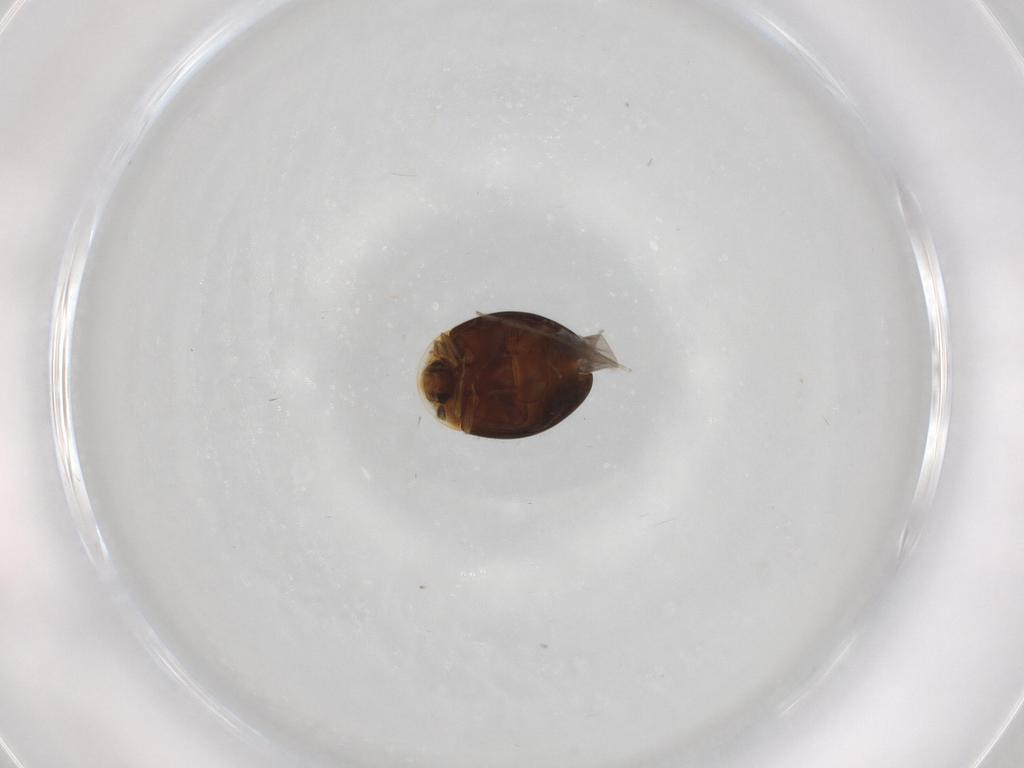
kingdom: Animalia
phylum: Arthropoda
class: Insecta
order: Coleoptera
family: Corylophidae
